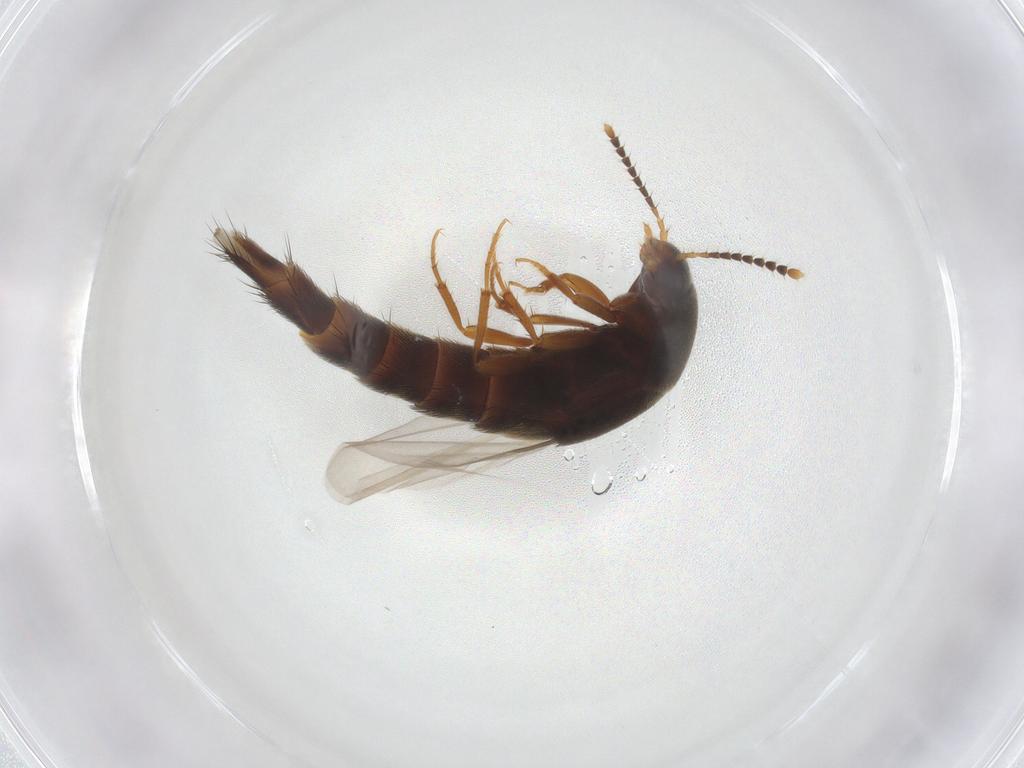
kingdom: Animalia
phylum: Arthropoda
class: Insecta
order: Coleoptera
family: Staphylinidae
